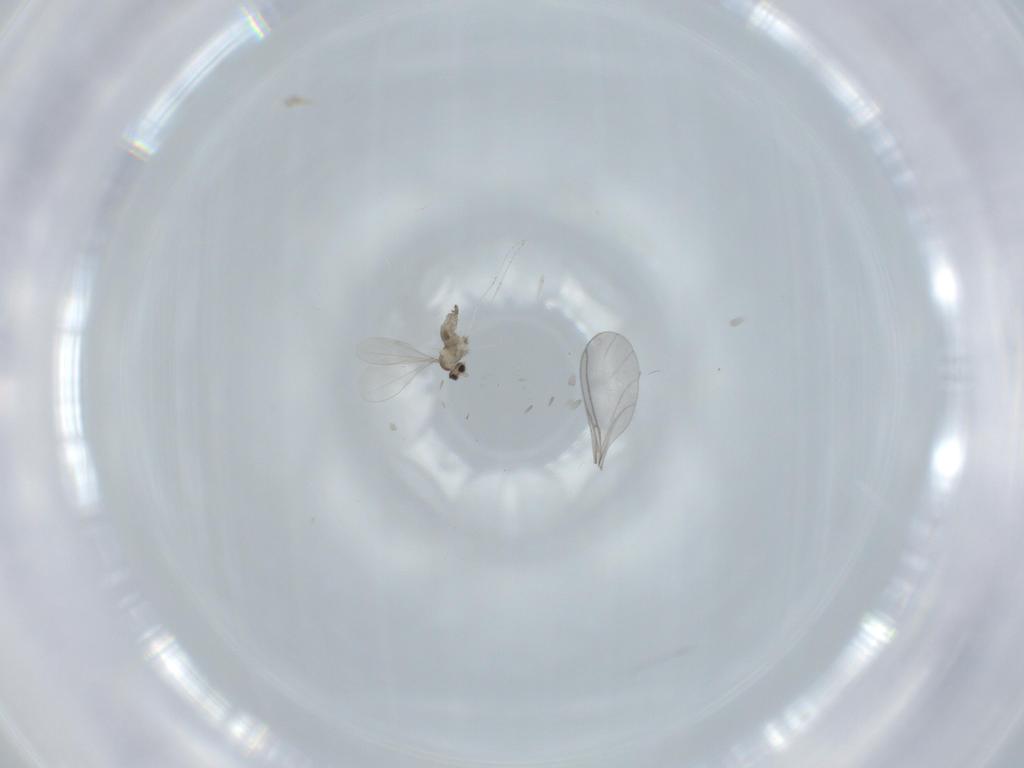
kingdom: Animalia
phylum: Arthropoda
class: Insecta
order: Diptera
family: Cecidomyiidae
